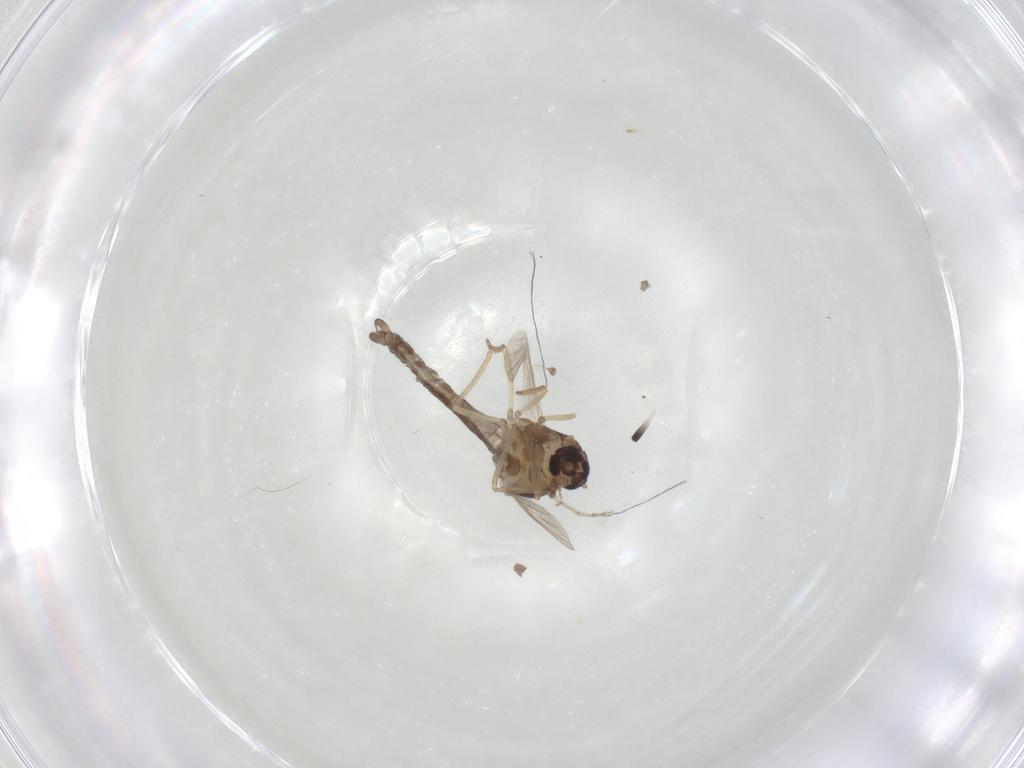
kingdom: Animalia
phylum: Arthropoda
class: Insecta
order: Diptera
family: Ceratopogonidae
